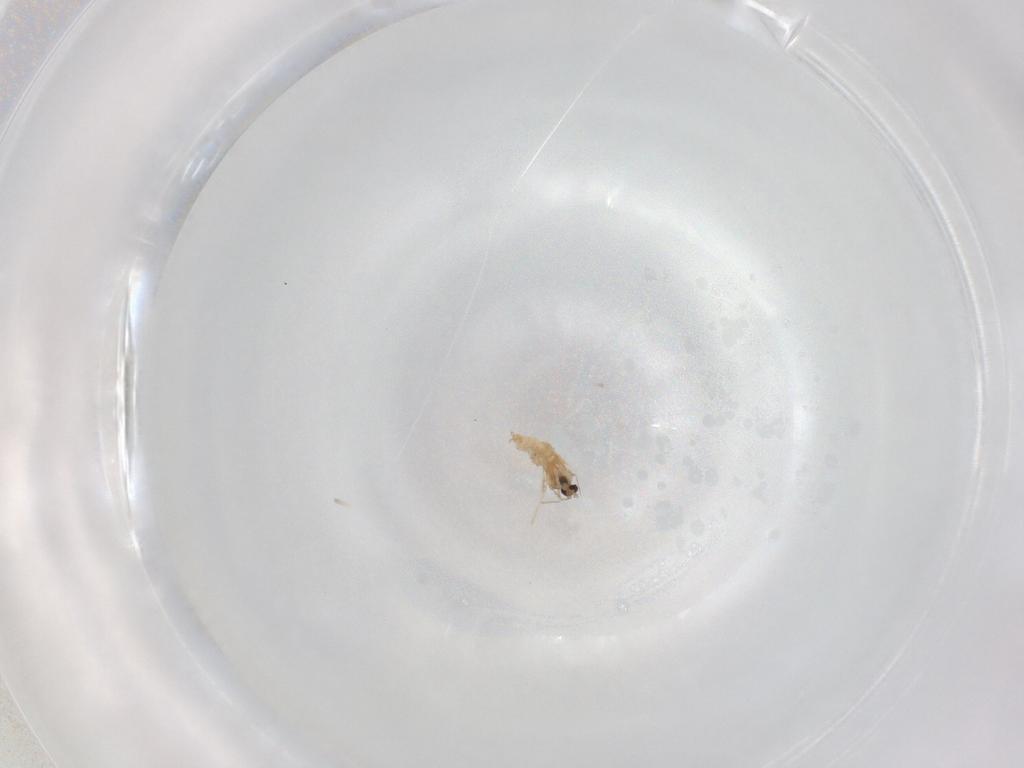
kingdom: Animalia
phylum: Arthropoda
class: Insecta
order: Diptera
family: Cecidomyiidae
